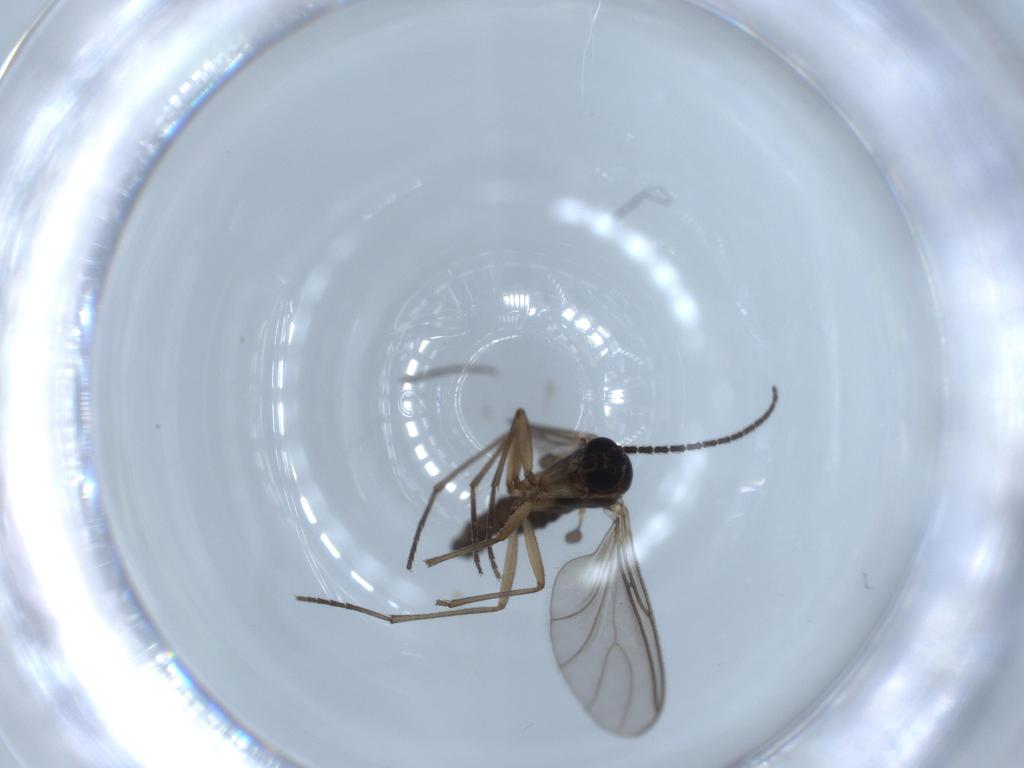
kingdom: Animalia
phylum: Arthropoda
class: Insecta
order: Diptera
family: Sciaridae
